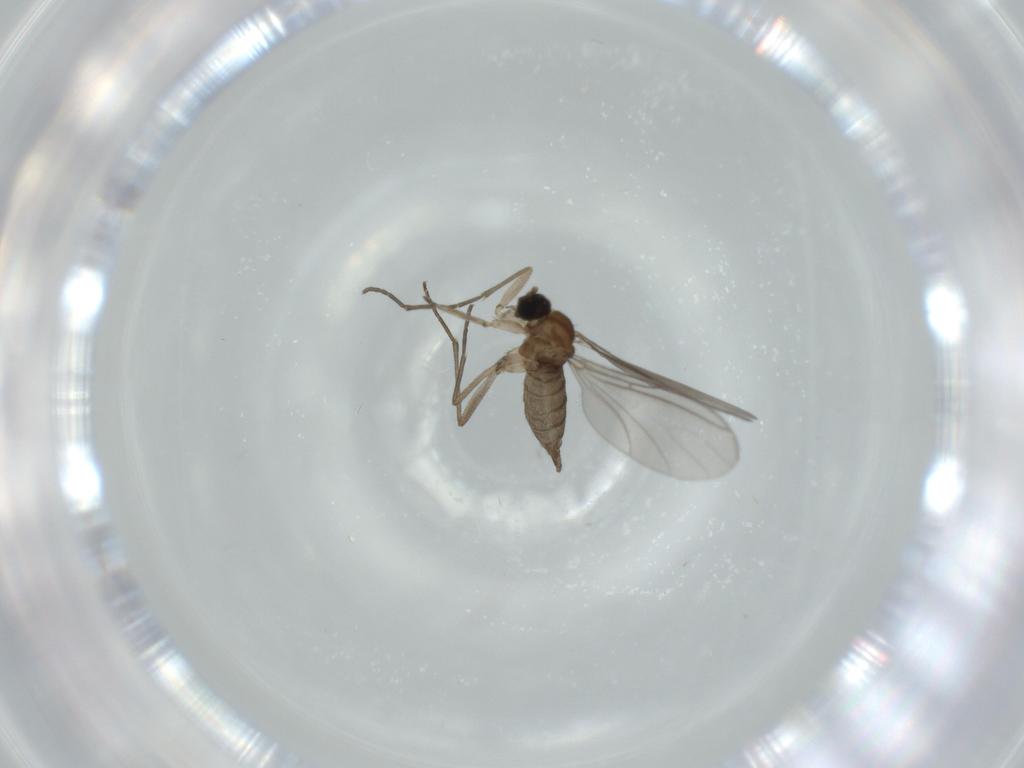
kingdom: Animalia
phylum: Arthropoda
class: Insecta
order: Diptera
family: Sciaridae
